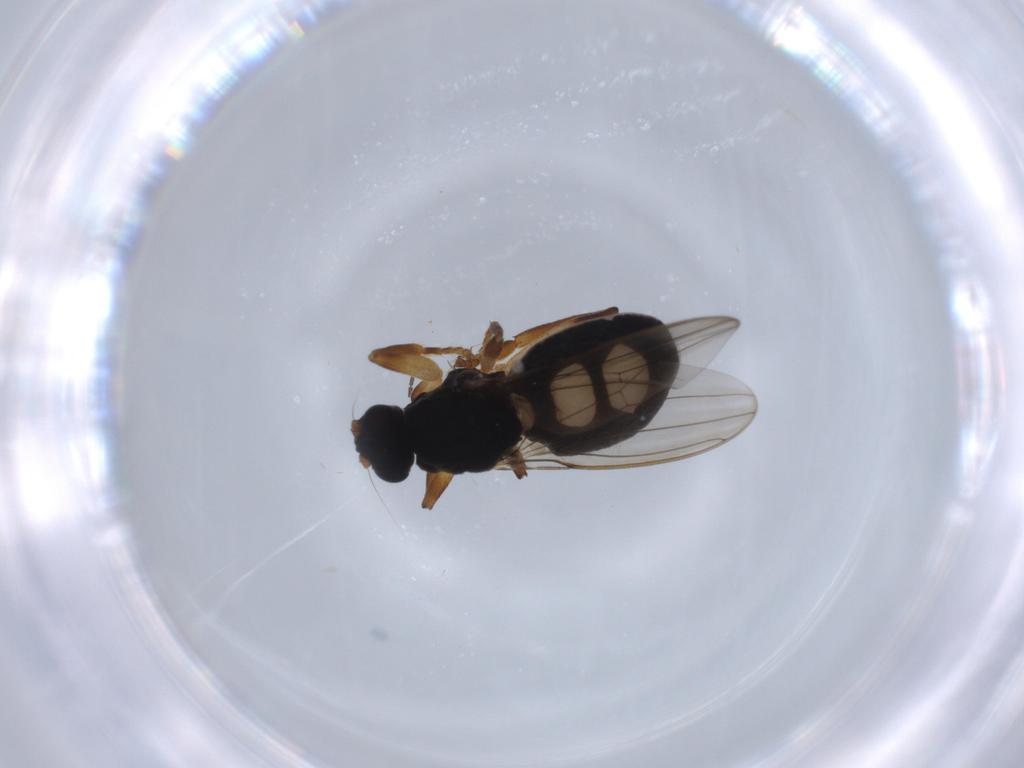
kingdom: Animalia
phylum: Arthropoda
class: Insecta
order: Diptera
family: Sphaeroceridae
